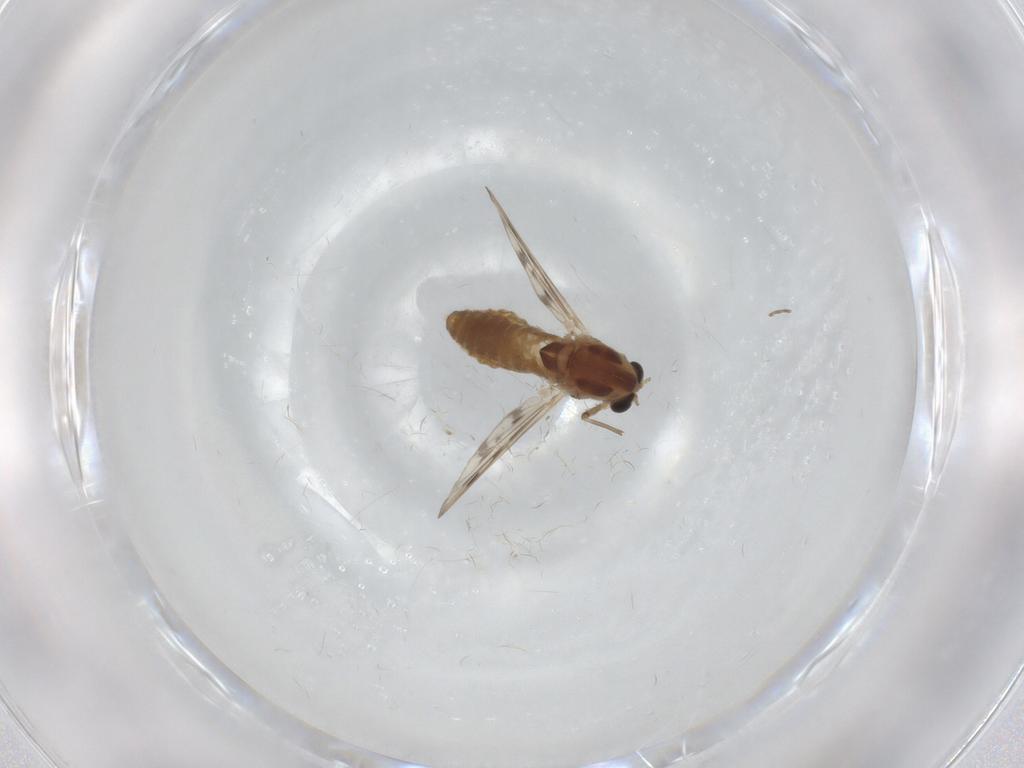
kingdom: Animalia
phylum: Arthropoda
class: Insecta
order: Diptera
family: Chironomidae
